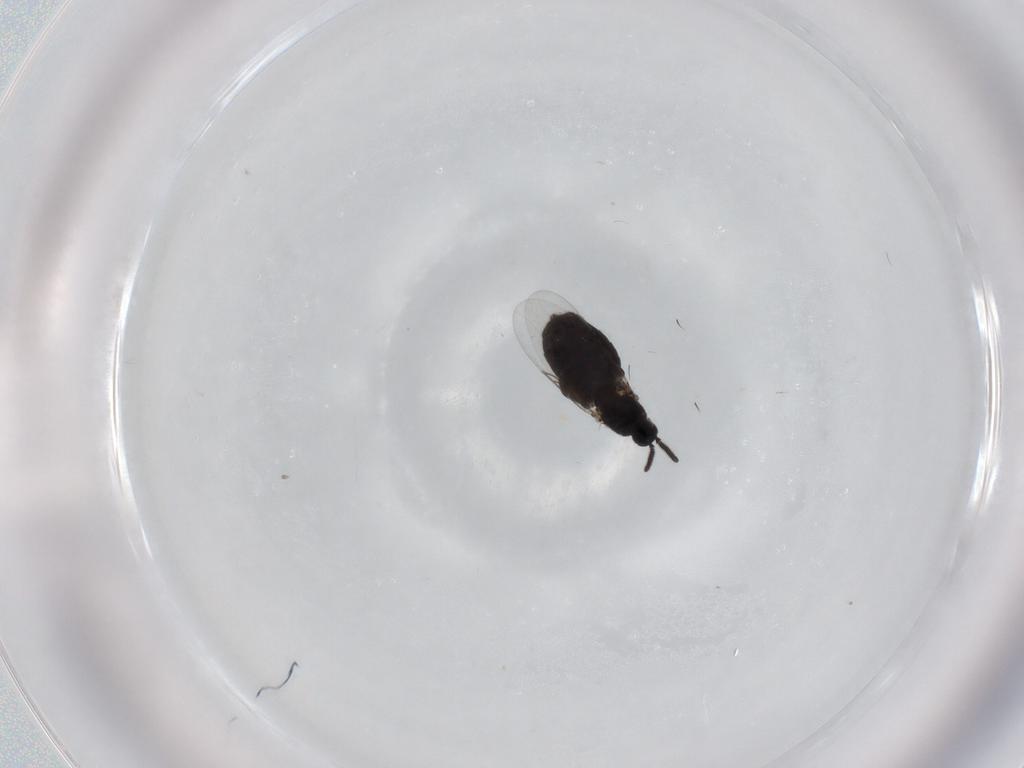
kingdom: Animalia
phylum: Arthropoda
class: Insecta
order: Diptera
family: Calliphoridae
